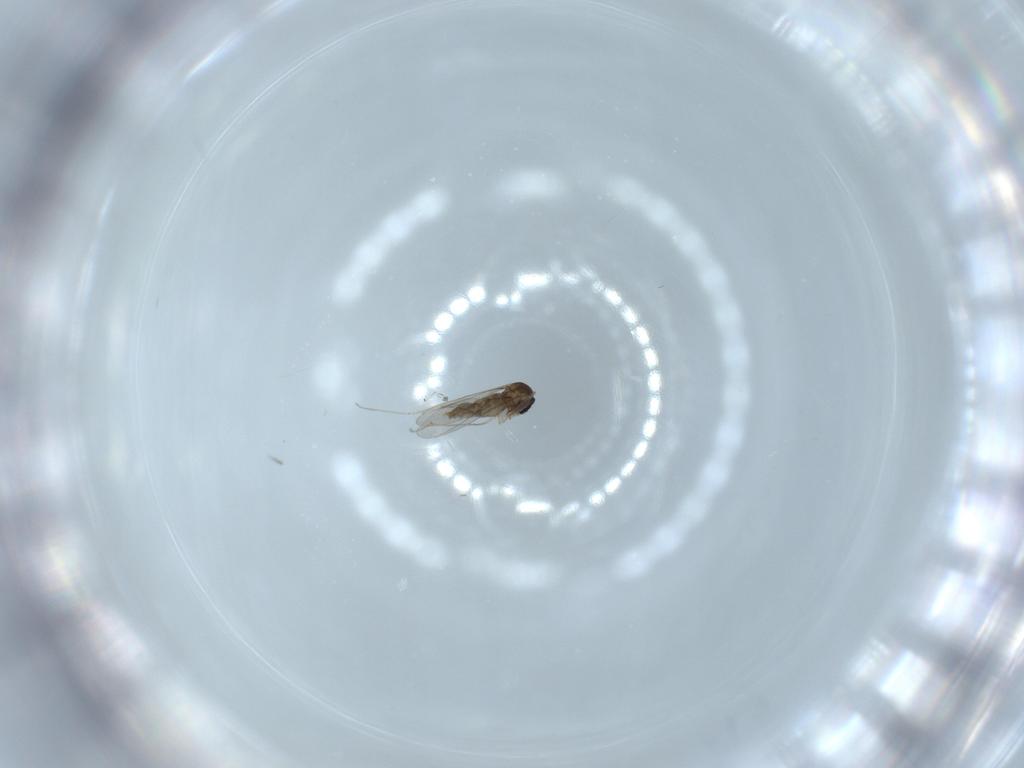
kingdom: Animalia
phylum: Arthropoda
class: Insecta
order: Diptera
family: Cecidomyiidae
